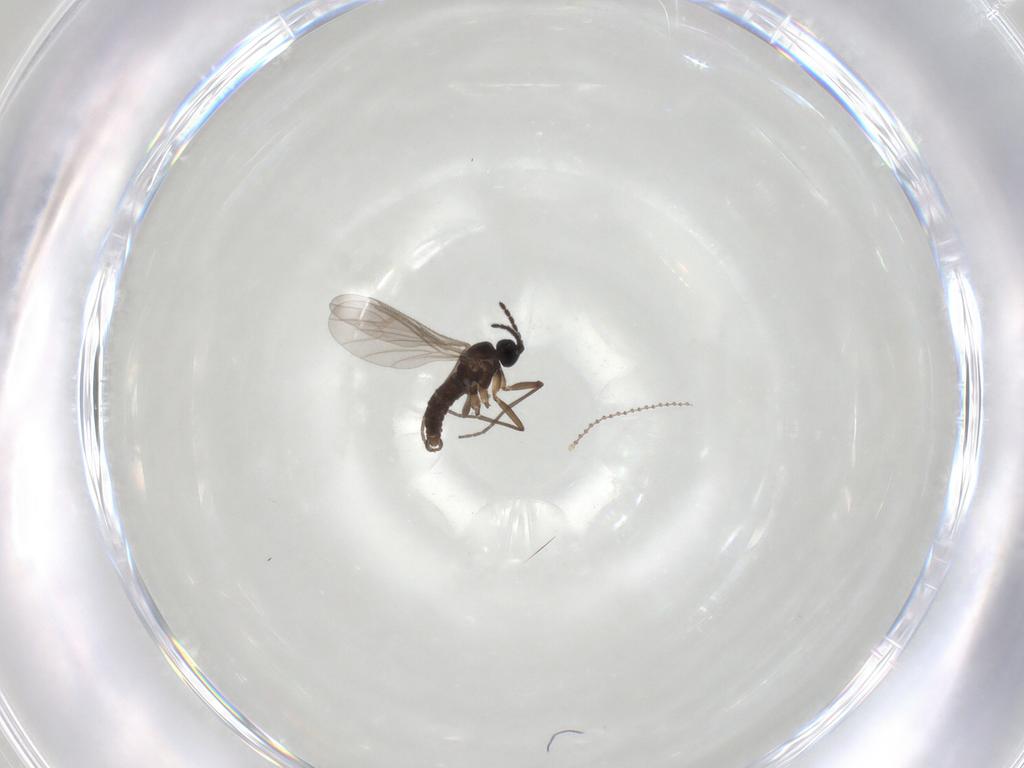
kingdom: Animalia
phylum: Arthropoda
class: Insecta
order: Diptera
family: Sciaridae
